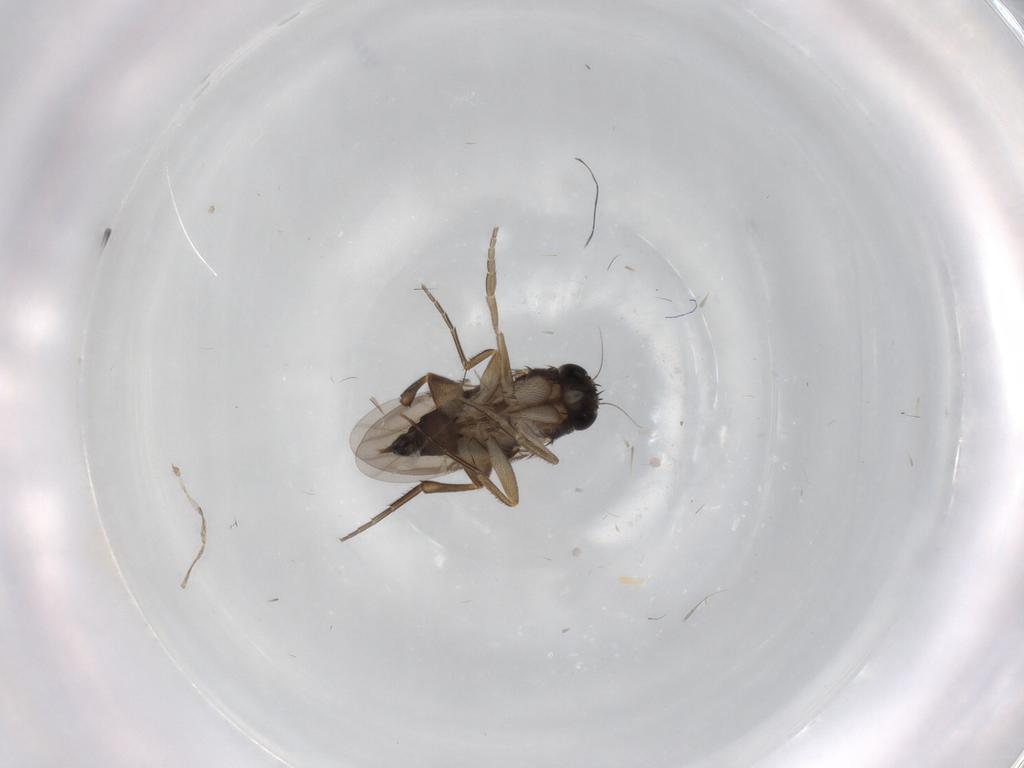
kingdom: Animalia
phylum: Arthropoda
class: Insecta
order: Diptera
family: Phoridae
